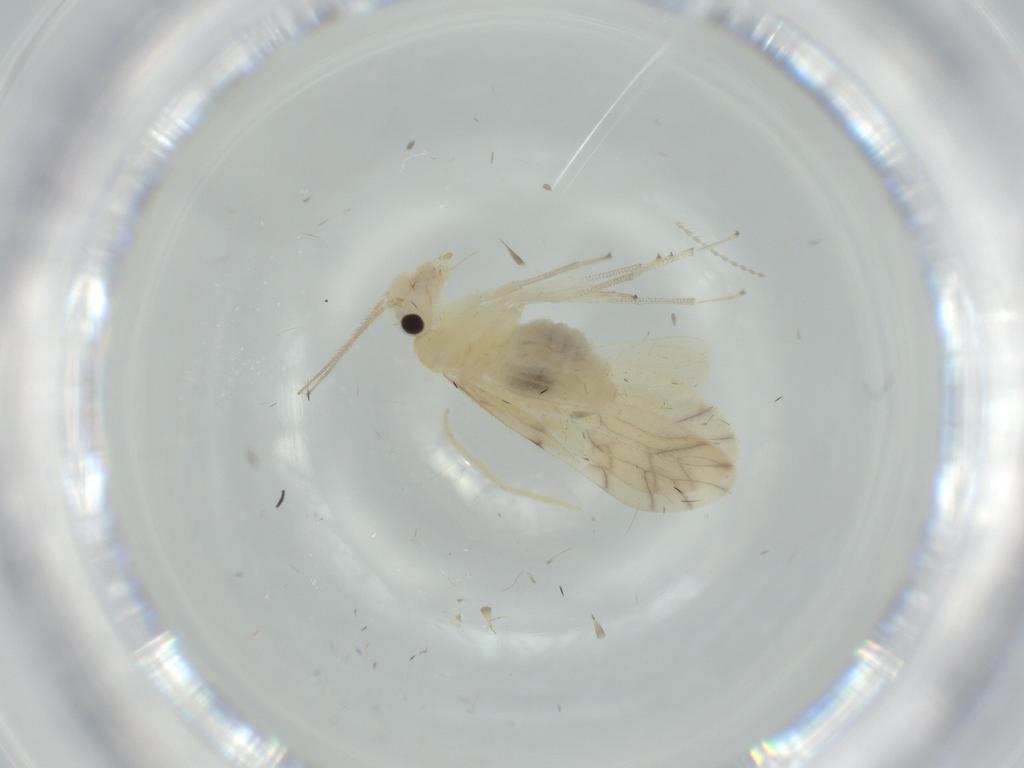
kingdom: Animalia
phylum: Arthropoda
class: Insecta
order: Psocodea
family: Caeciliusidae
